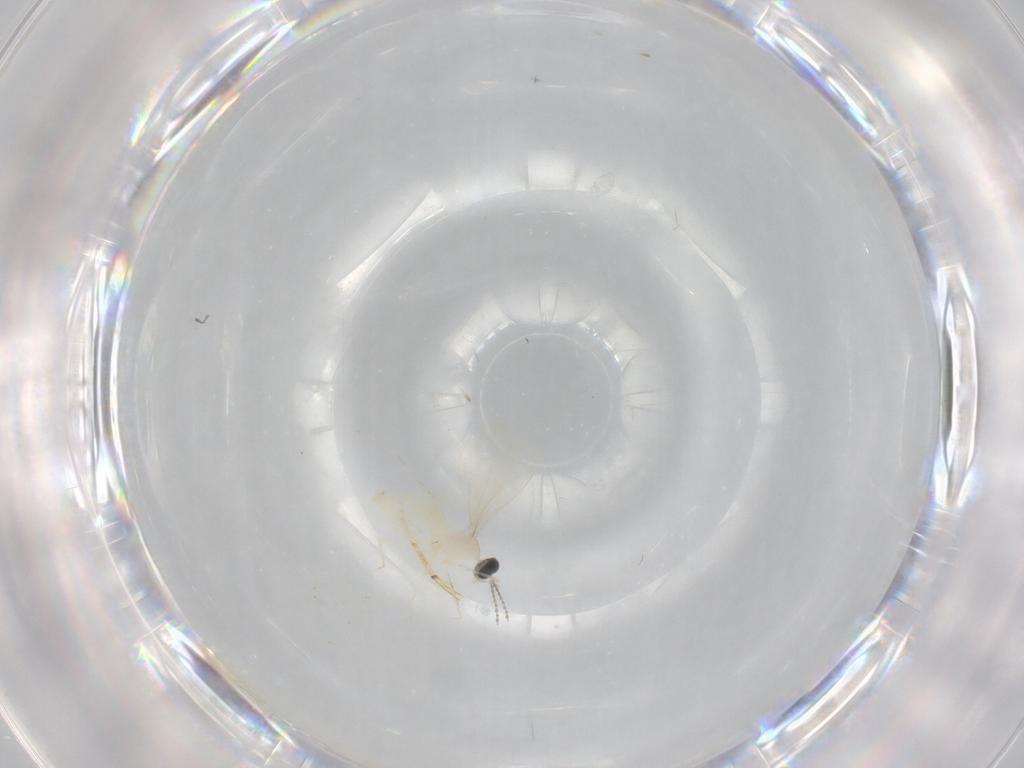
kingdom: Animalia
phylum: Arthropoda
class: Insecta
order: Diptera
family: Cecidomyiidae
